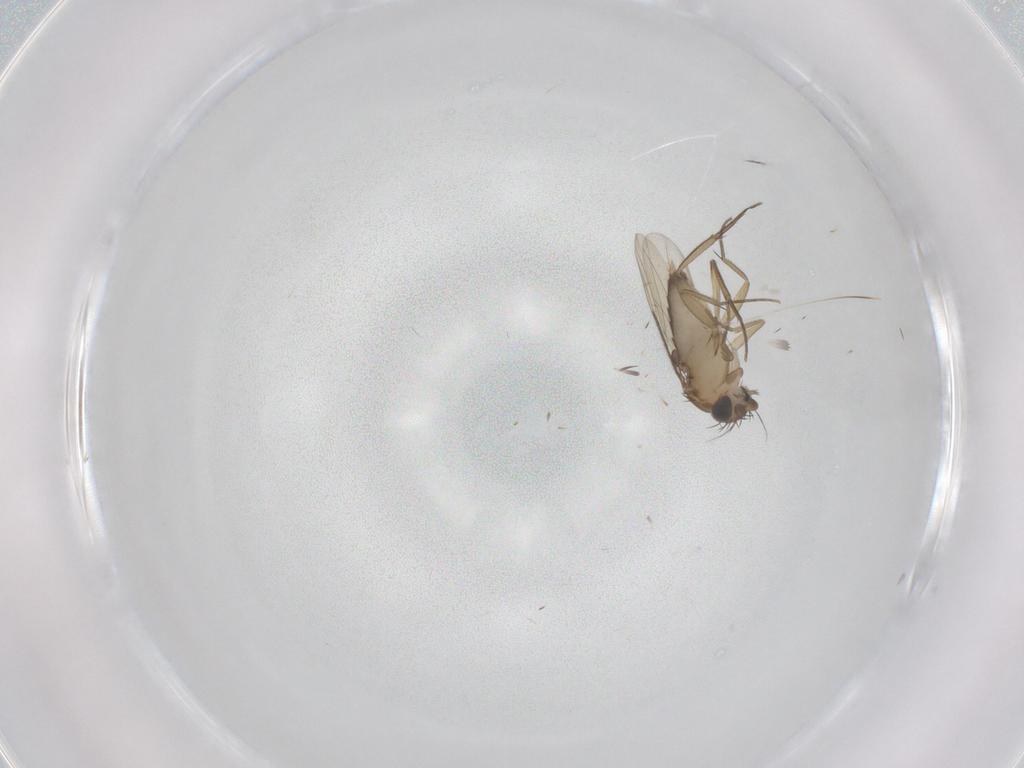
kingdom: Animalia
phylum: Arthropoda
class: Insecta
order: Diptera
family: Phoridae
